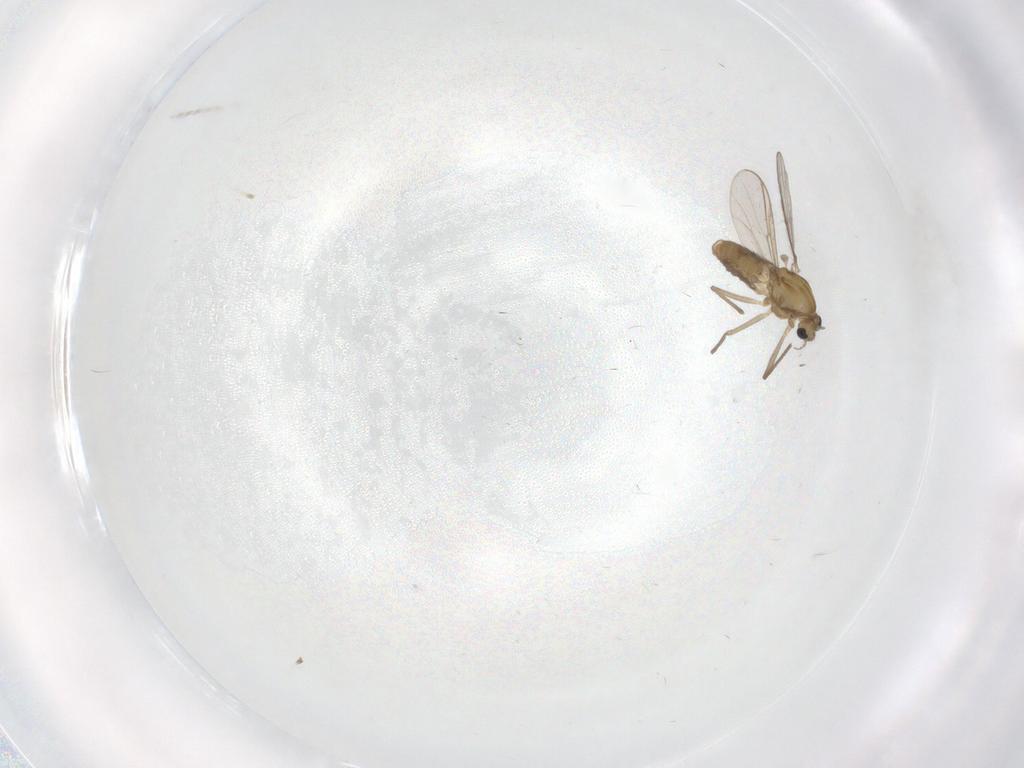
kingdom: Animalia
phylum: Arthropoda
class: Insecta
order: Diptera
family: Chironomidae
